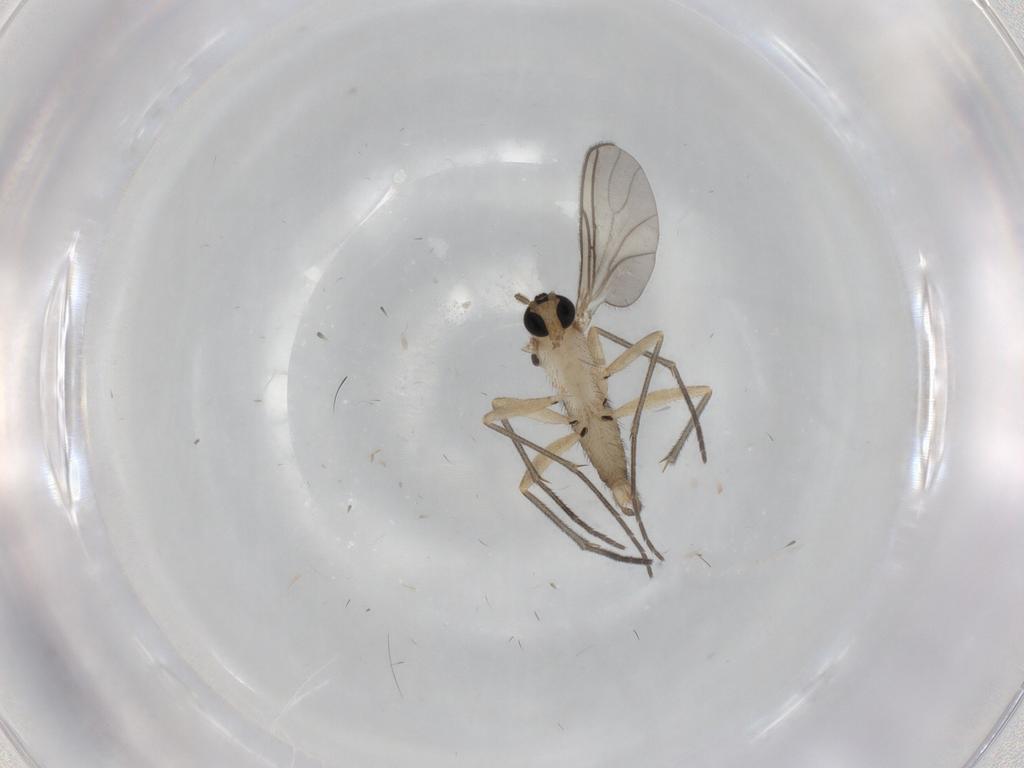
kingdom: Animalia
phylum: Arthropoda
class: Insecta
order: Diptera
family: Sciaridae
